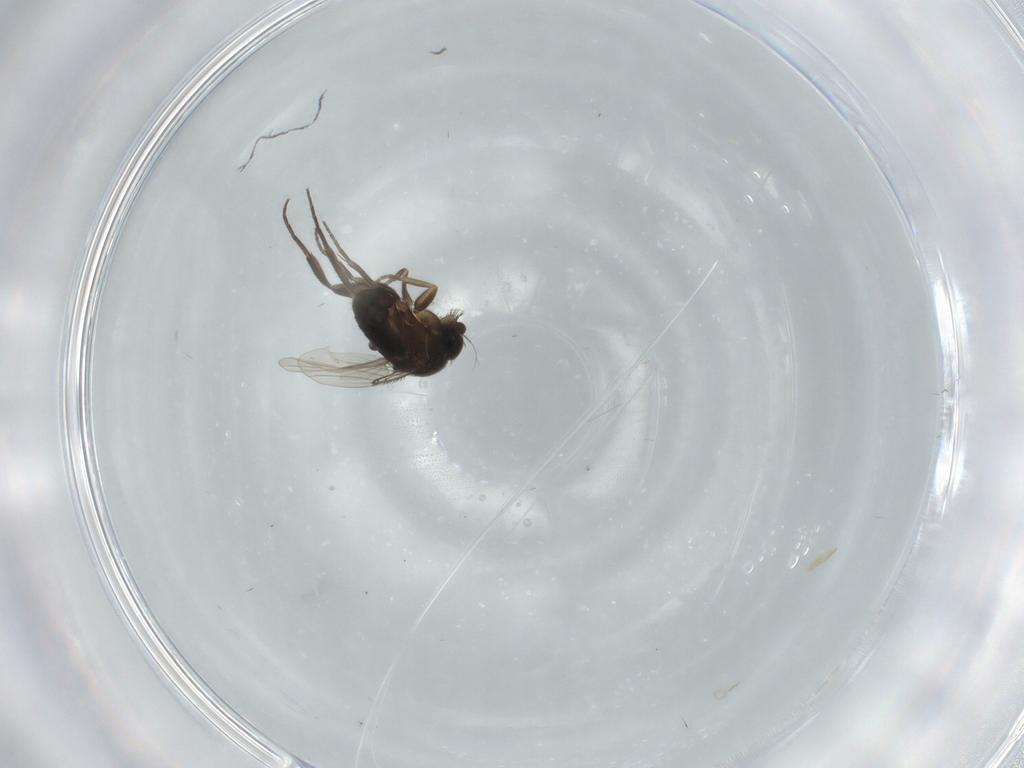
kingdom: Animalia
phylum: Arthropoda
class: Insecta
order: Diptera
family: Phoridae
